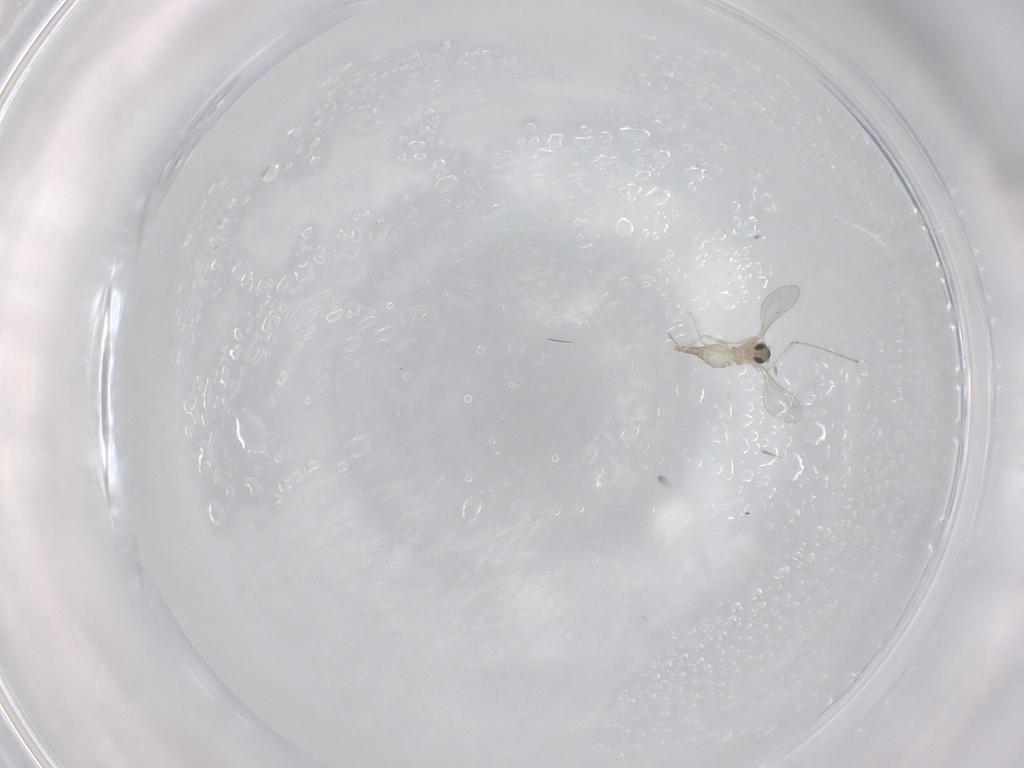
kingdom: Animalia
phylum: Arthropoda
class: Insecta
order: Diptera
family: Cecidomyiidae
